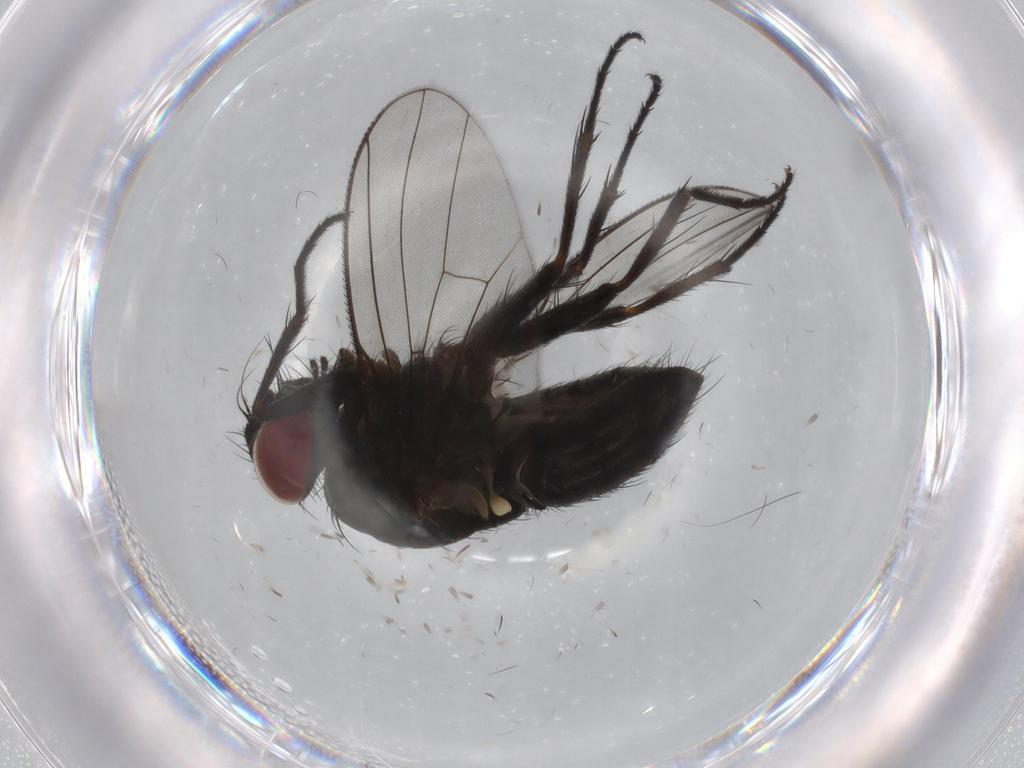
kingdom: Animalia
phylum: Arthropoda
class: Insecta
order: Diptera
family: Muscidae
